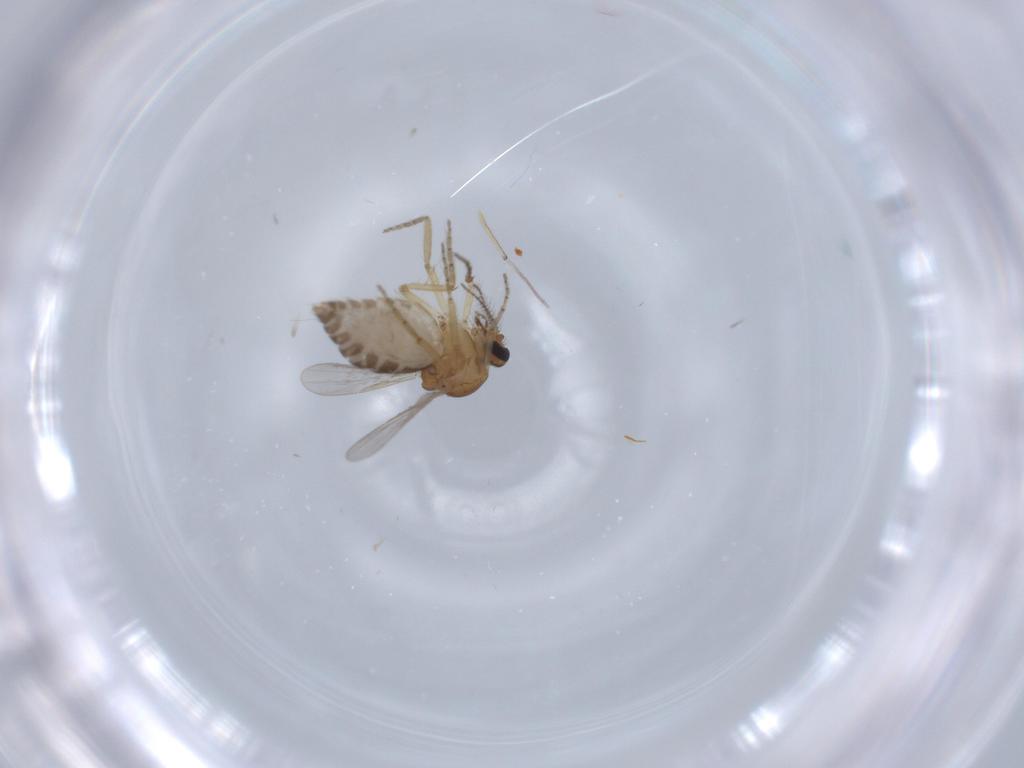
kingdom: Animalia
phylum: Arthropoda
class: Insecta
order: Diptera
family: Ceratopogonidae
